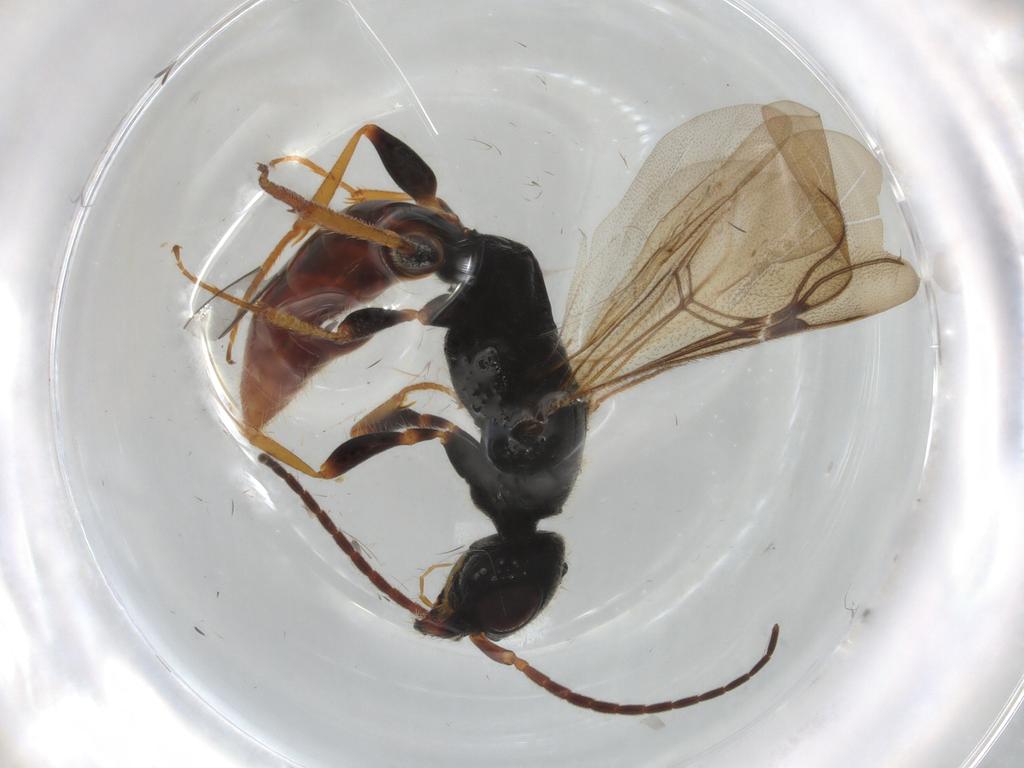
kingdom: Animalia
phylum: Arthropoda
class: Insecta
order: Hymenoptera
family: Bethylidae
